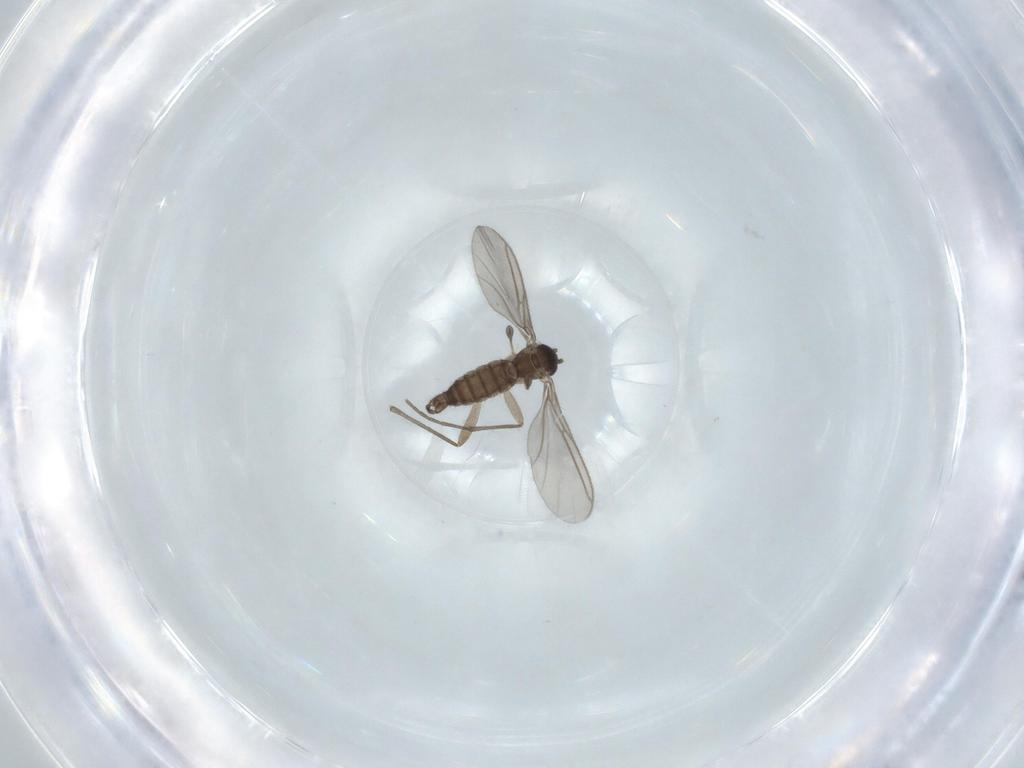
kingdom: Animalia
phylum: Arthropoda
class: Insecta
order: Diptera
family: Sciaridae
